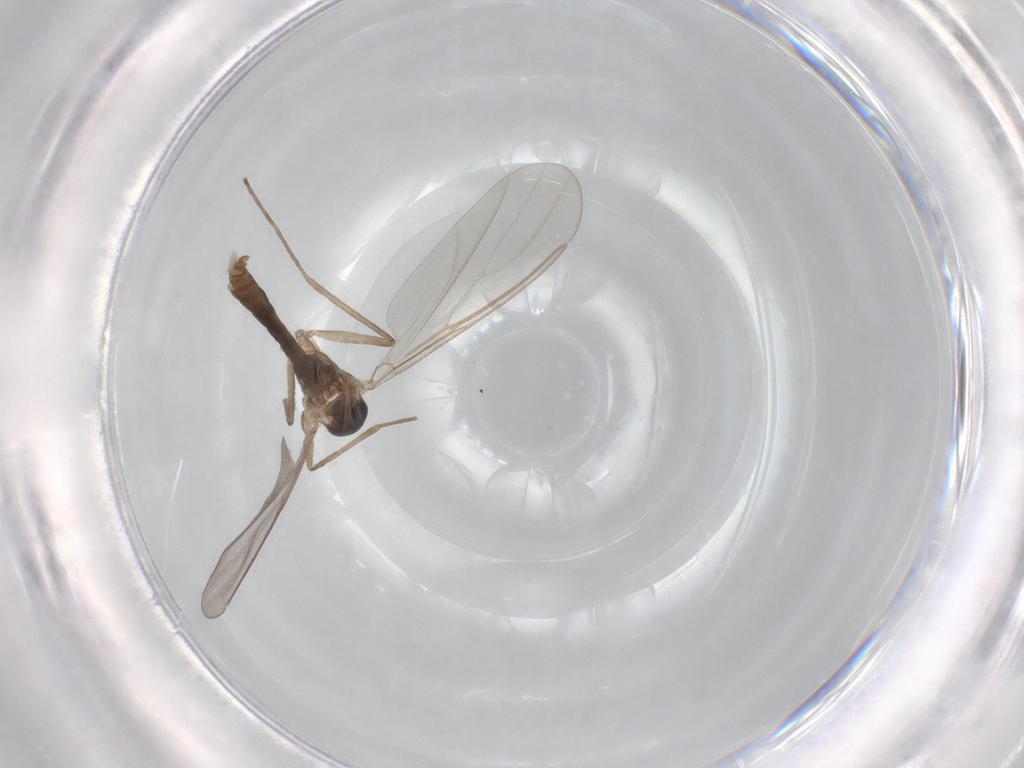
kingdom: Animalia
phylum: Arthropoda
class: Insecta
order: Diptera
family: Cecidomyiidae
